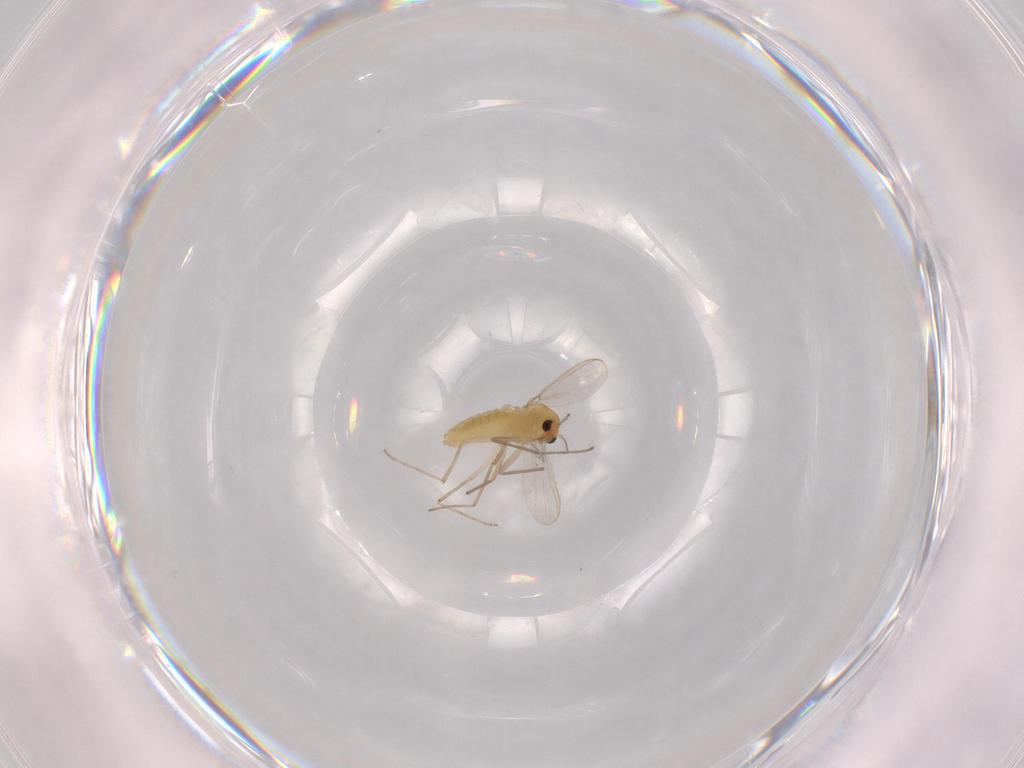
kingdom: Animalia
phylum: Arthropoda
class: Insecta
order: Diptera
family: Chironomidae
